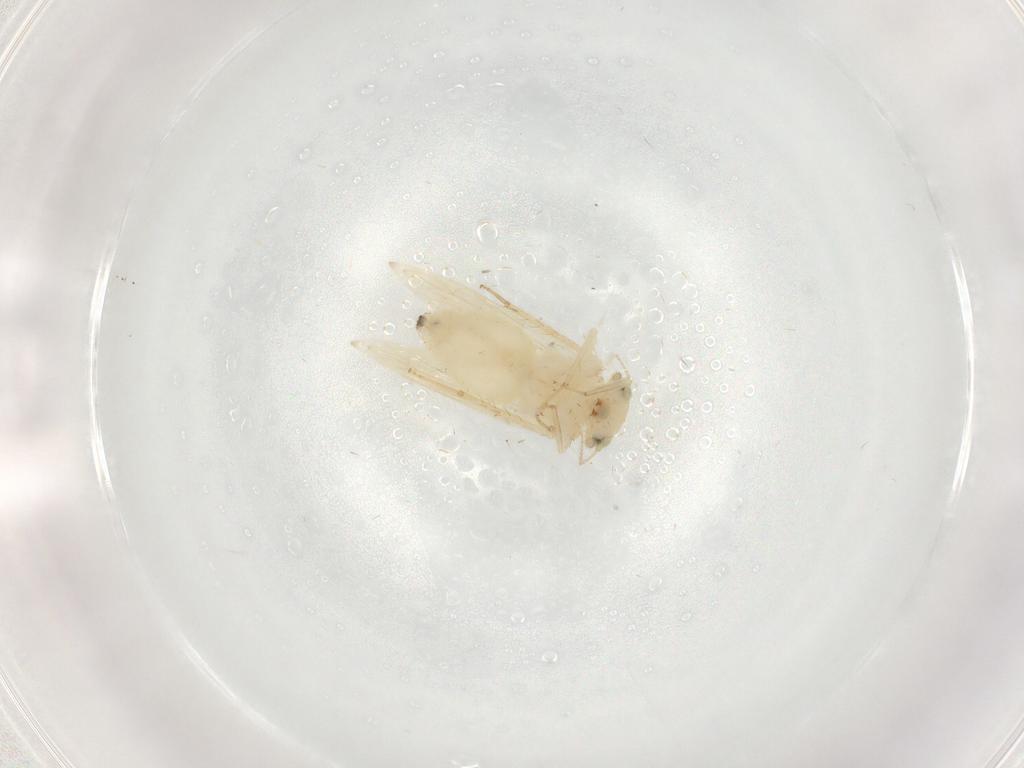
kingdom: Animalia
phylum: Arthropoda
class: Insecta
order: Psocodea
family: Lepidopsocidae
